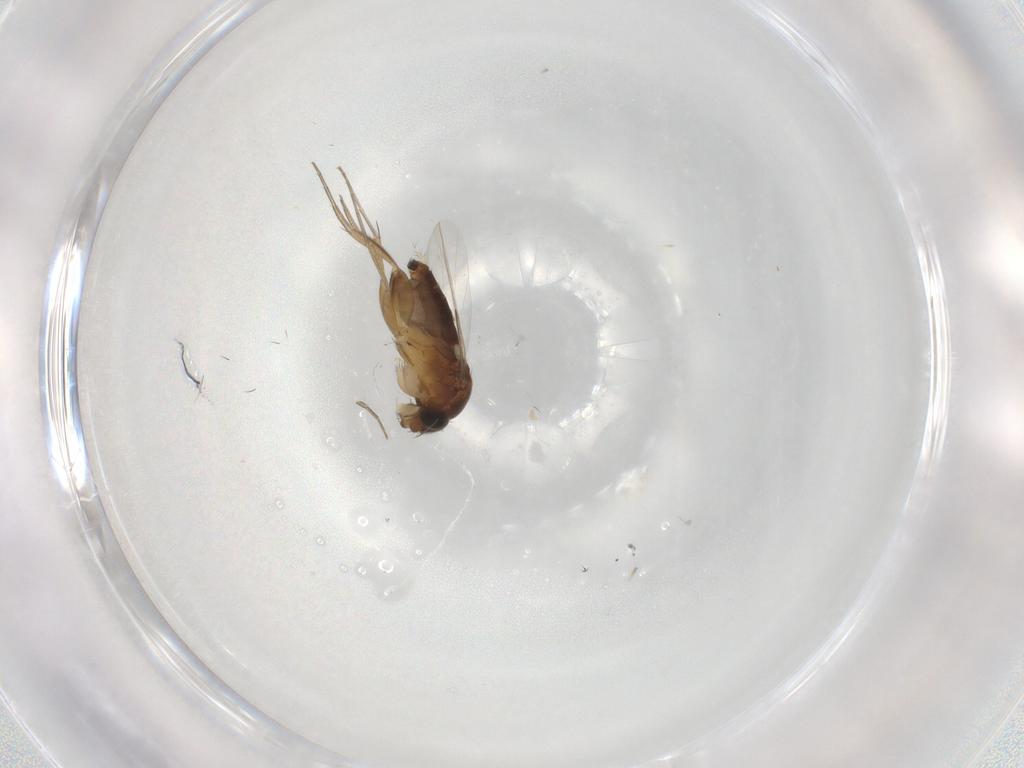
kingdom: Animalia
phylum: Arthropoda
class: Insecta
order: Diptera
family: Phoridae
